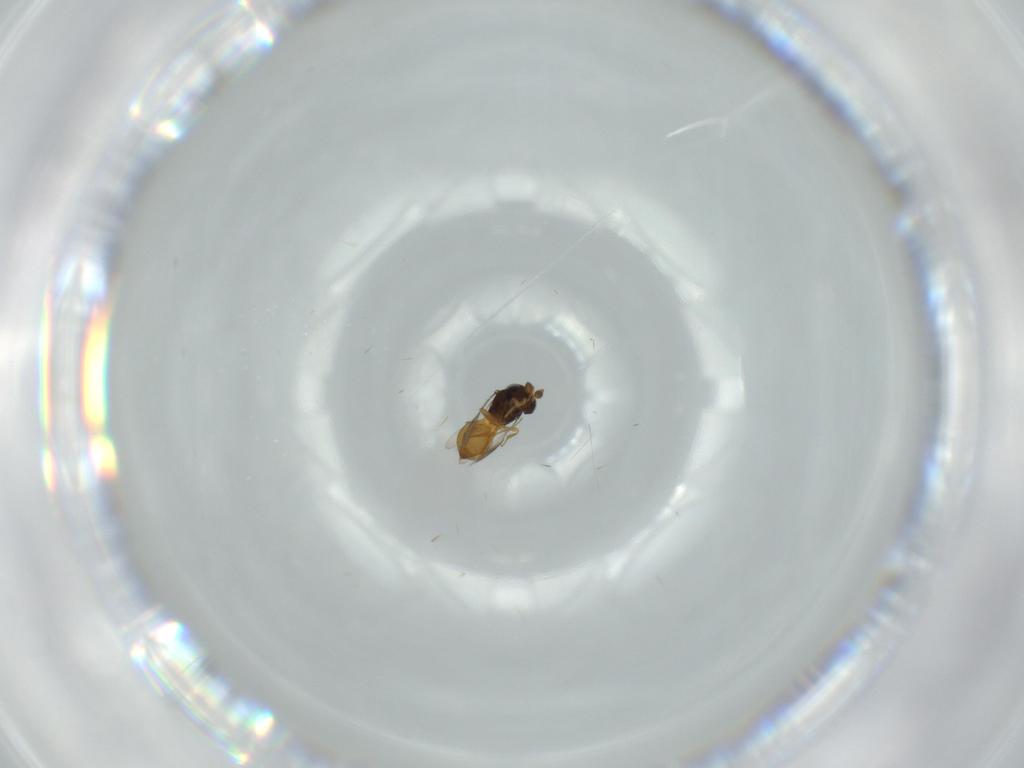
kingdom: Animalia
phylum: Arthropoda
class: Insecta
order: Hymenoptera
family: Scelionidae
